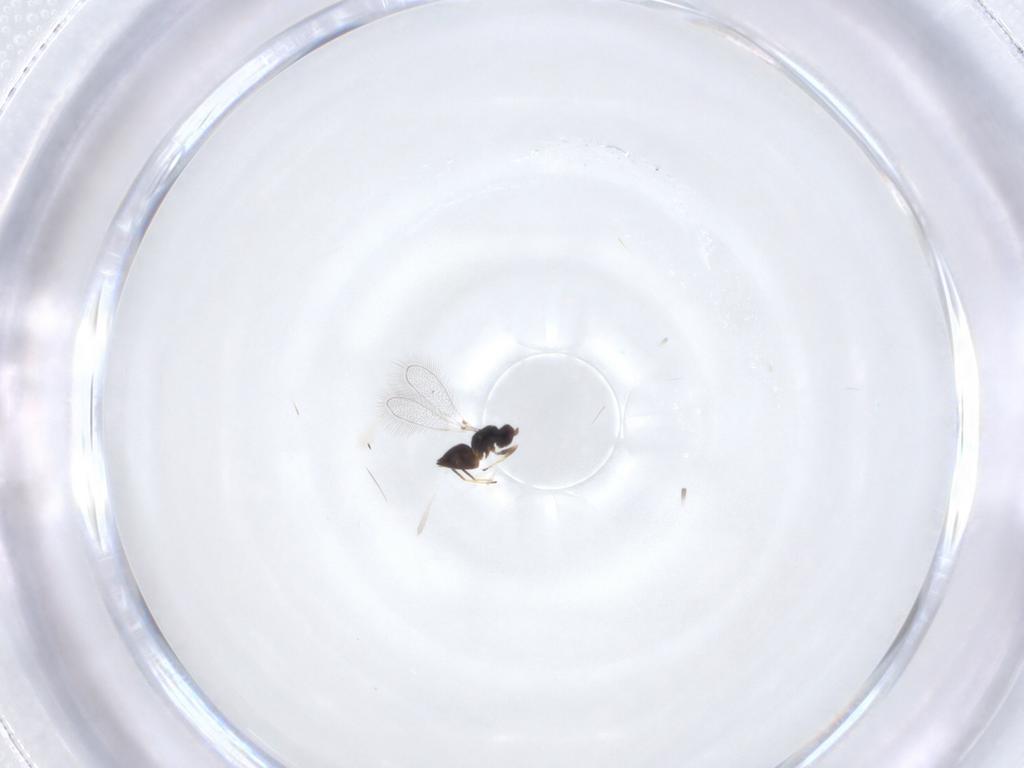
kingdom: Animalia
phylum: Arthropoda
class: Insecta
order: Hymenoptera
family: Mymaridae
